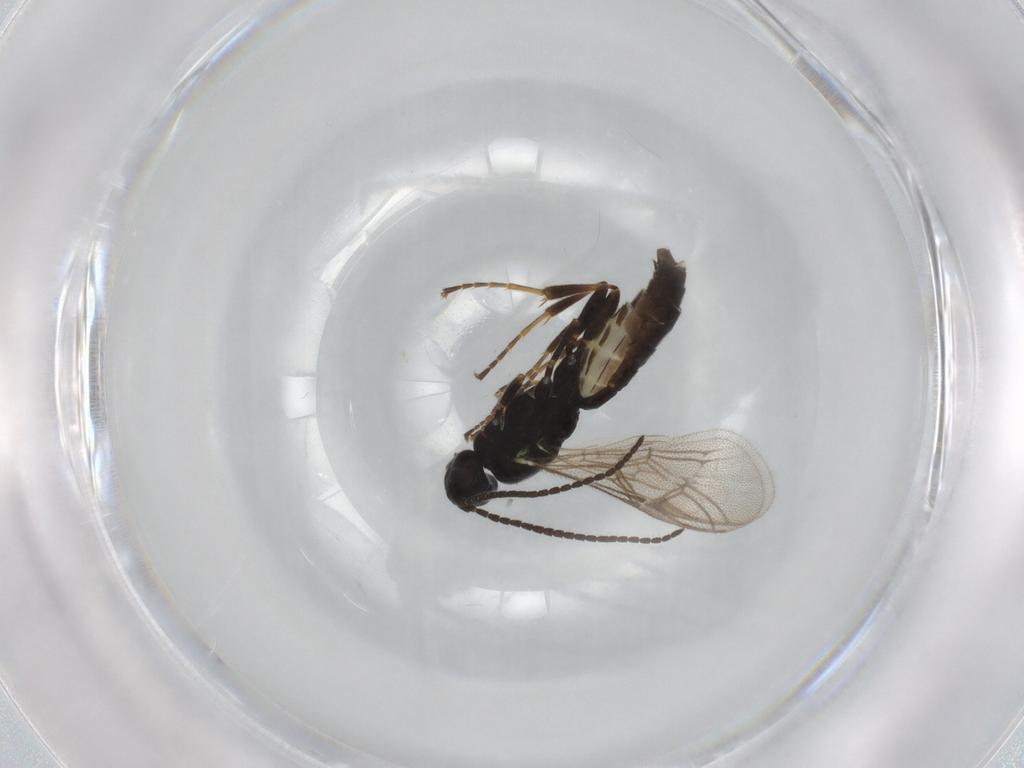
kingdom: Animalia
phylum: Arthropoda
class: Insecta
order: Hymenoptera
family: Ichneumonidae
